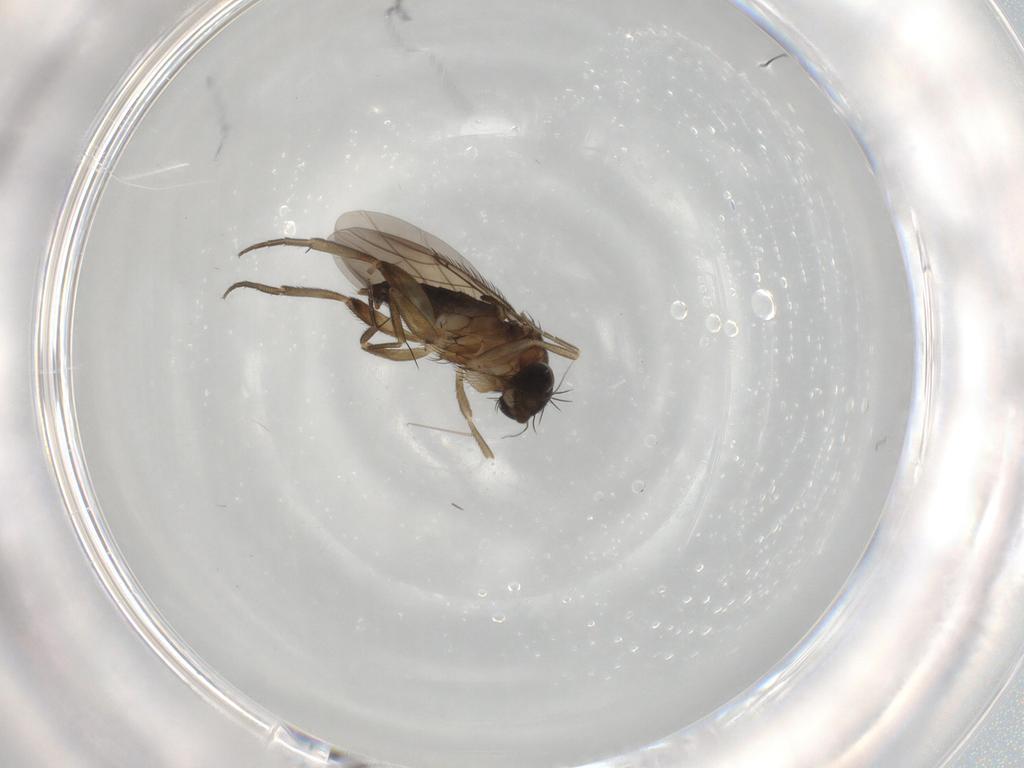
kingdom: Animalia
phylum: Arthropoda
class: Insecta
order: Diptera
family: Phoridae
